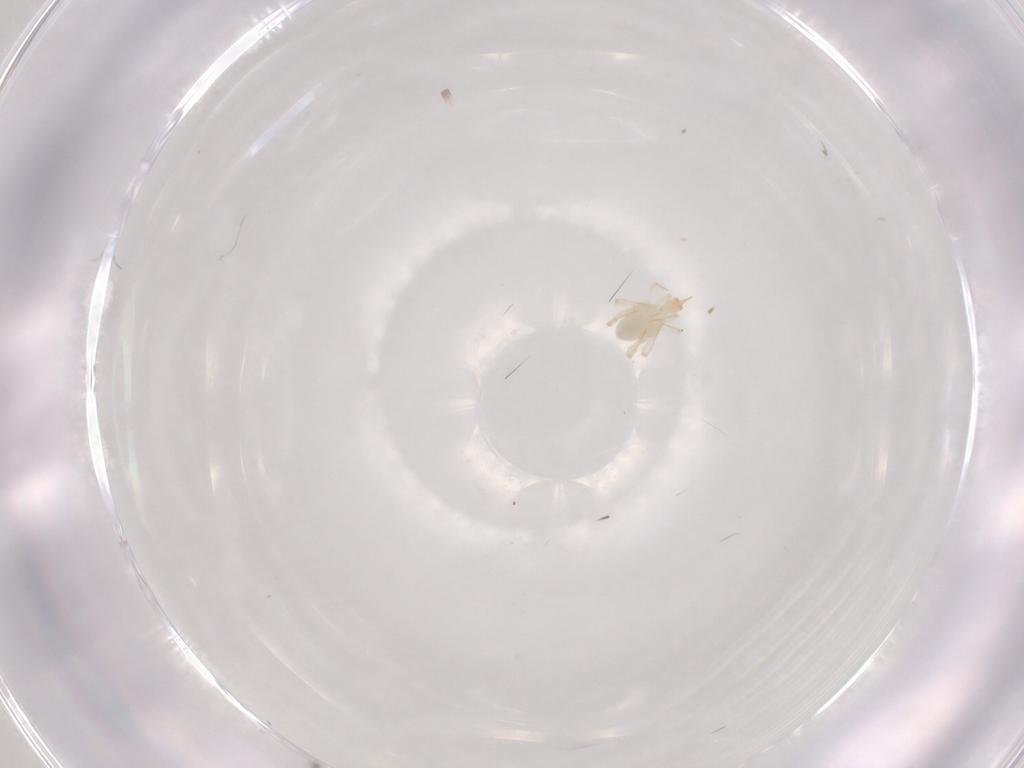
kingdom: Animalia
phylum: Arthropoda
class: Arachnida
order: Trombidiformes
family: Cunaxidae
